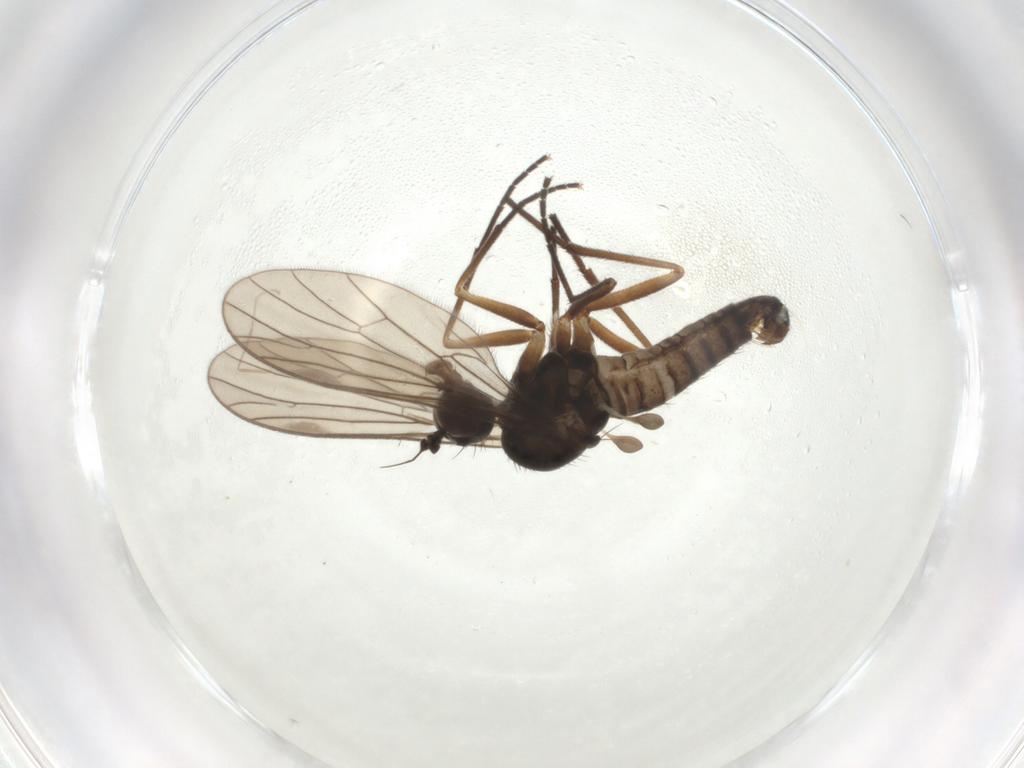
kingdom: Animalia
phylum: Arthropoda
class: Insecta
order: Diptera
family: Empididae
